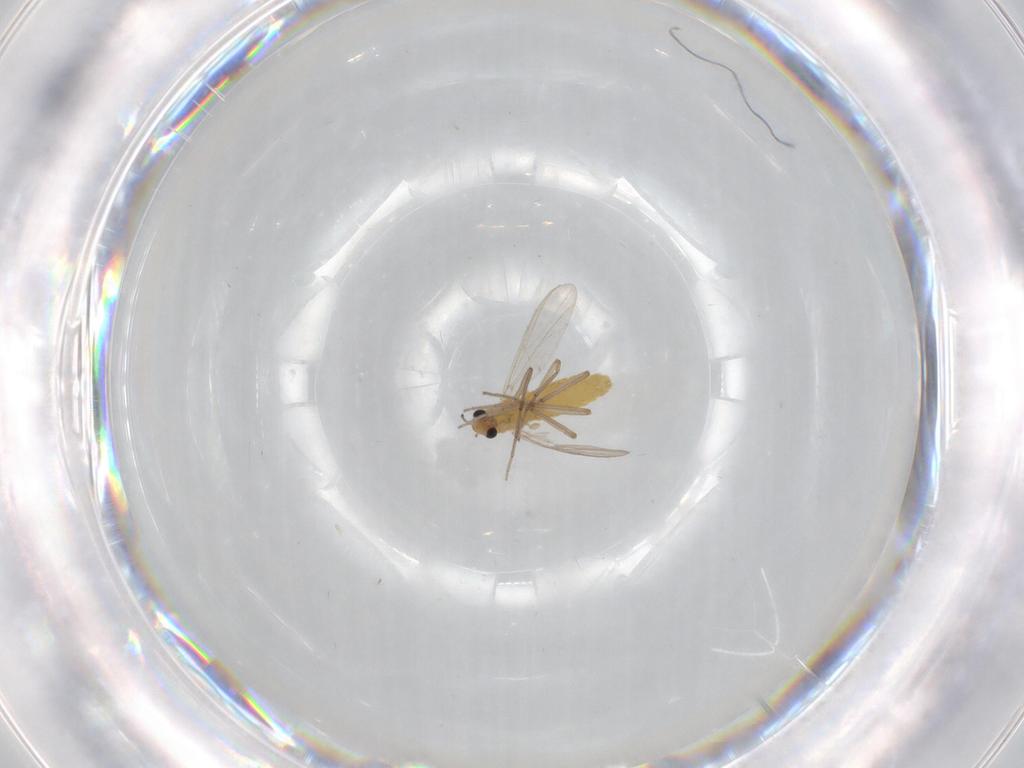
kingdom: Animalia
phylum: Arthropoda
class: Insecta
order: Diptera
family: Chironomidae
